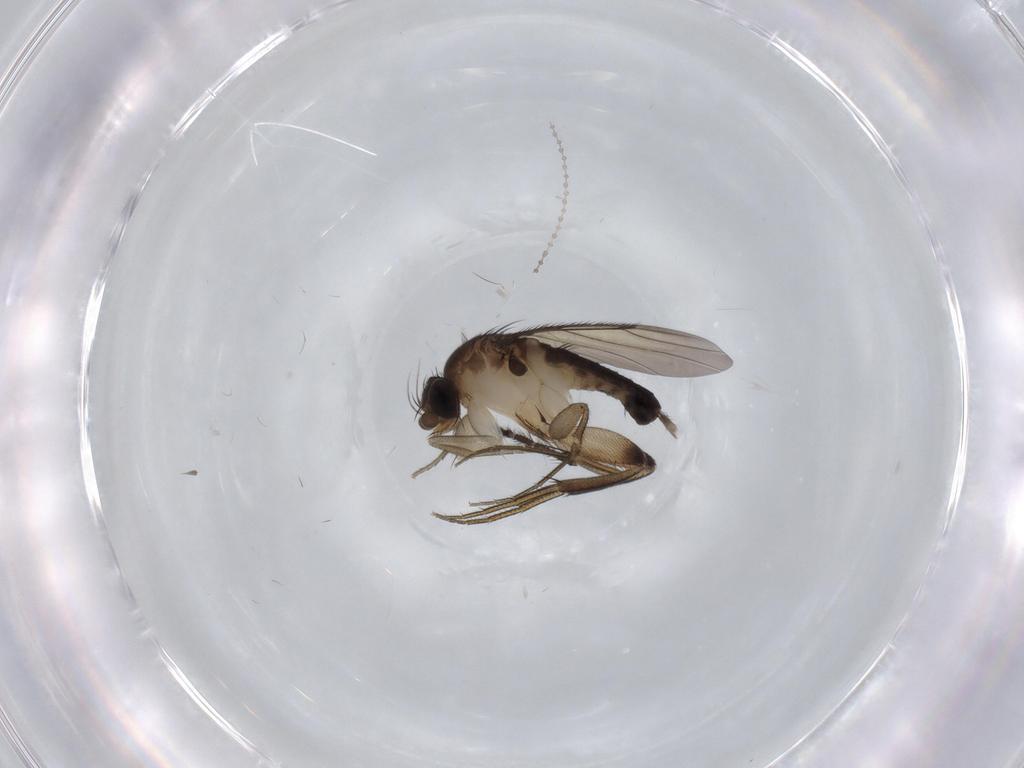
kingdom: Animalia
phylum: Arthropoda
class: Insecta
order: Diptera
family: Limoniidae
